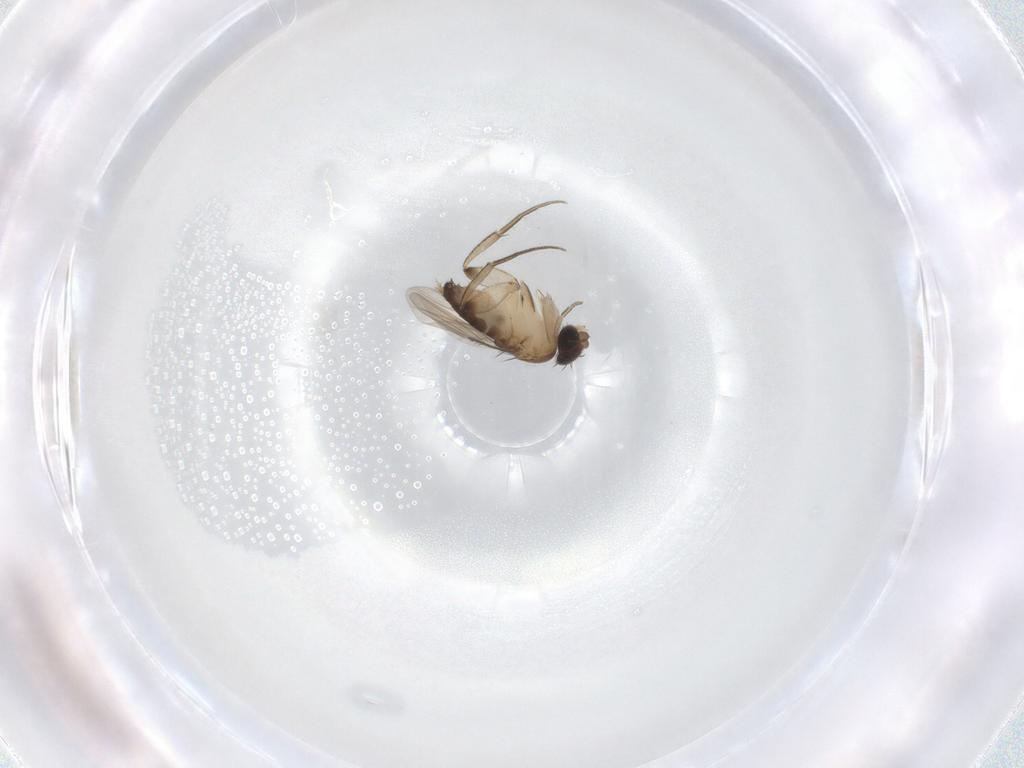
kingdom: Animalia
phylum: Arthropoda
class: Insecta
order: Diptera
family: Phoridae
